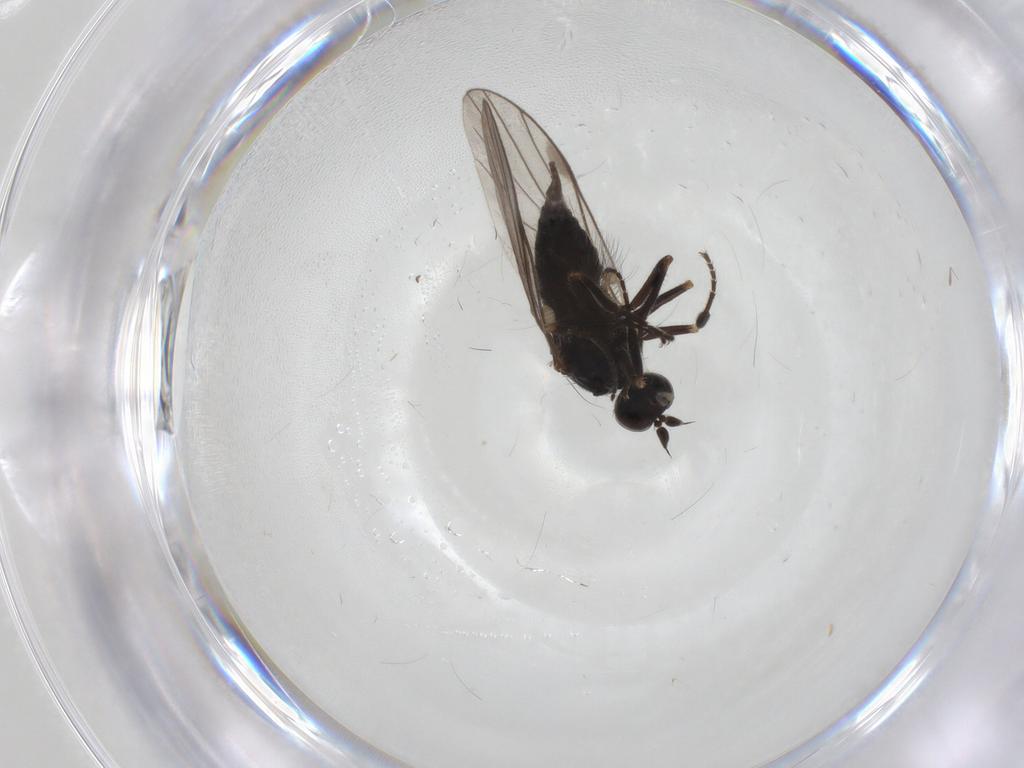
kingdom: Animalia
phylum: Arthropoda
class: Insecta
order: Diptera
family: Hybotidae
